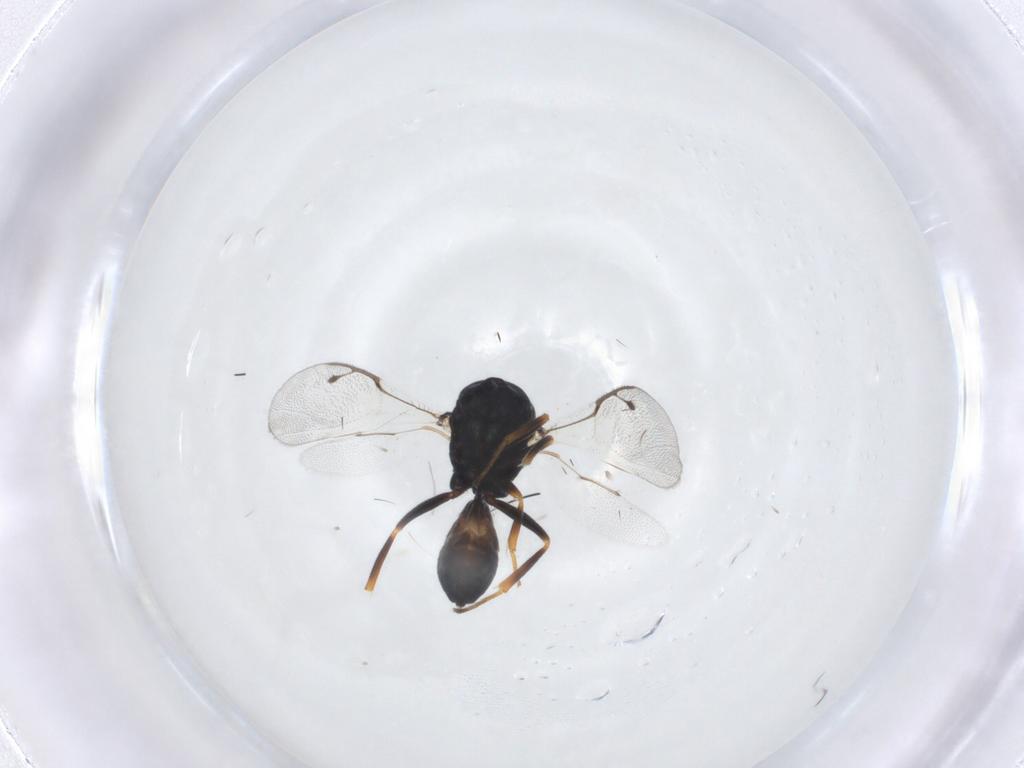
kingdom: Animalia
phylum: Arthropoda
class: Insecta
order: Hymenoptera
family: Pteromalidae
